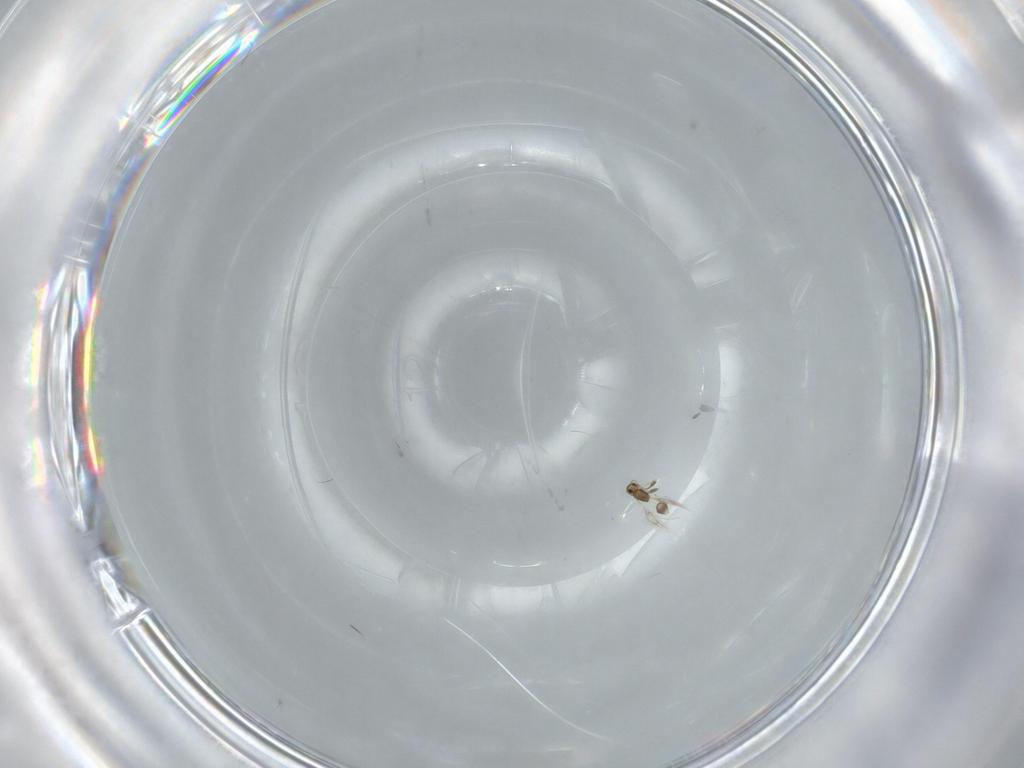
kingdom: Animalia
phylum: Arthropoda
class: Insecta
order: Hymenoptera
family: Mymarommatidae
